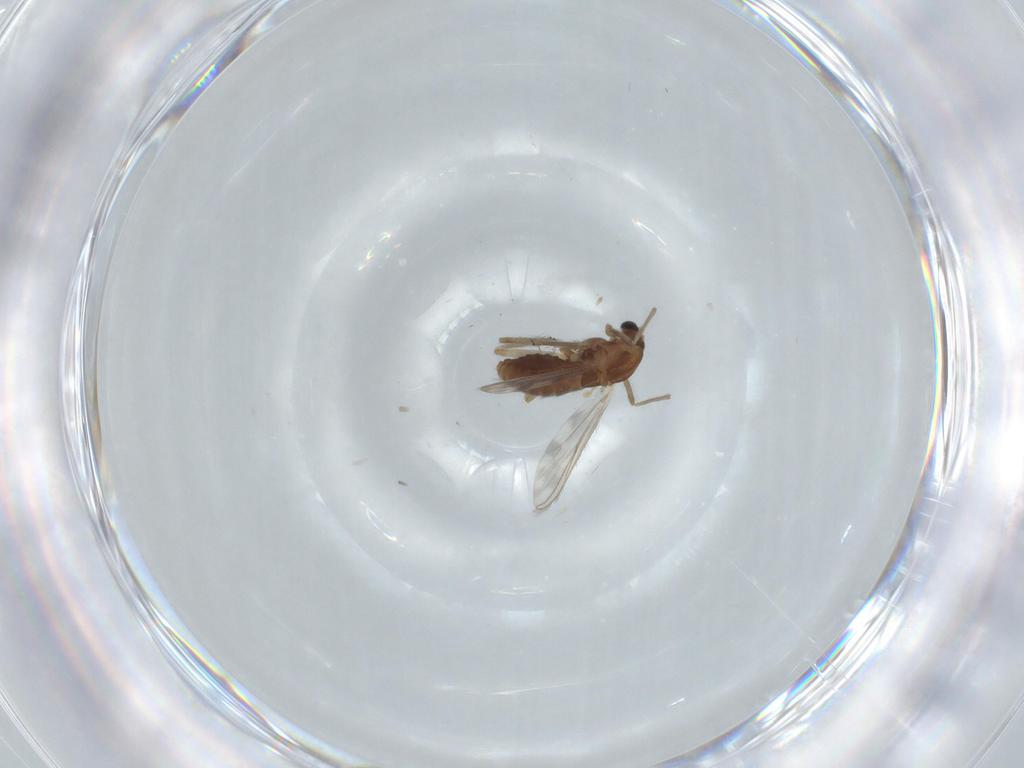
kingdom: Animalia
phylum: Arthropoda
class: Insecta
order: Diptera
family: Chironomidae
